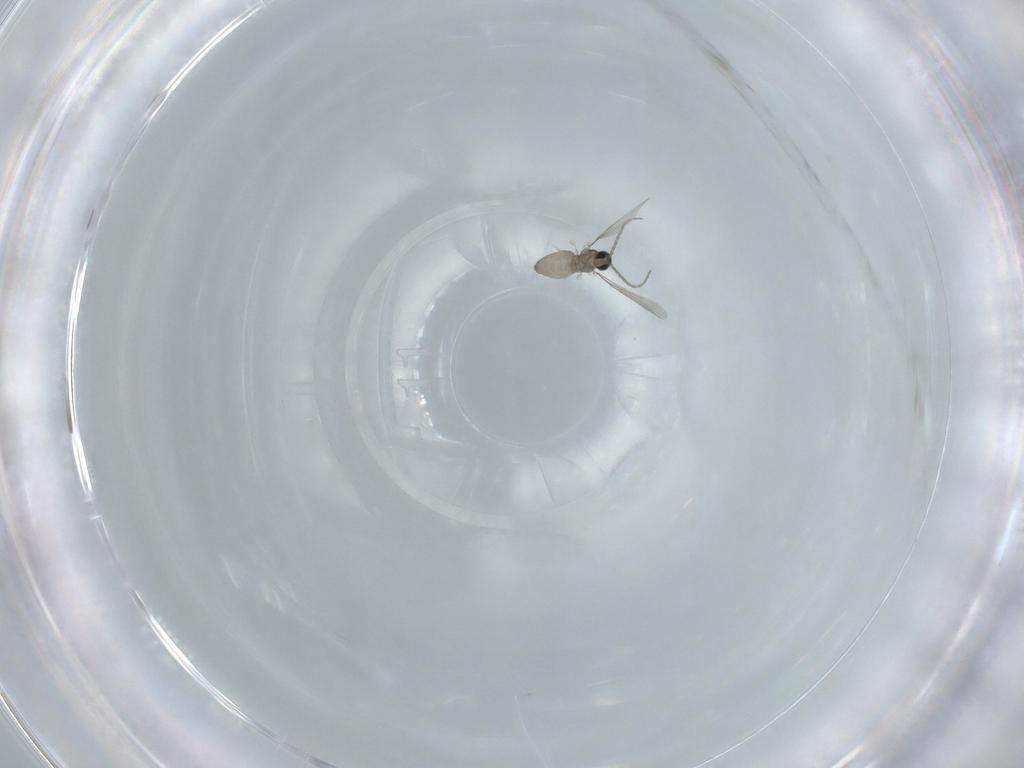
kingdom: Animalia
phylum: Arthropoda
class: Insecta
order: Diptera
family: Cecidomyiidae
